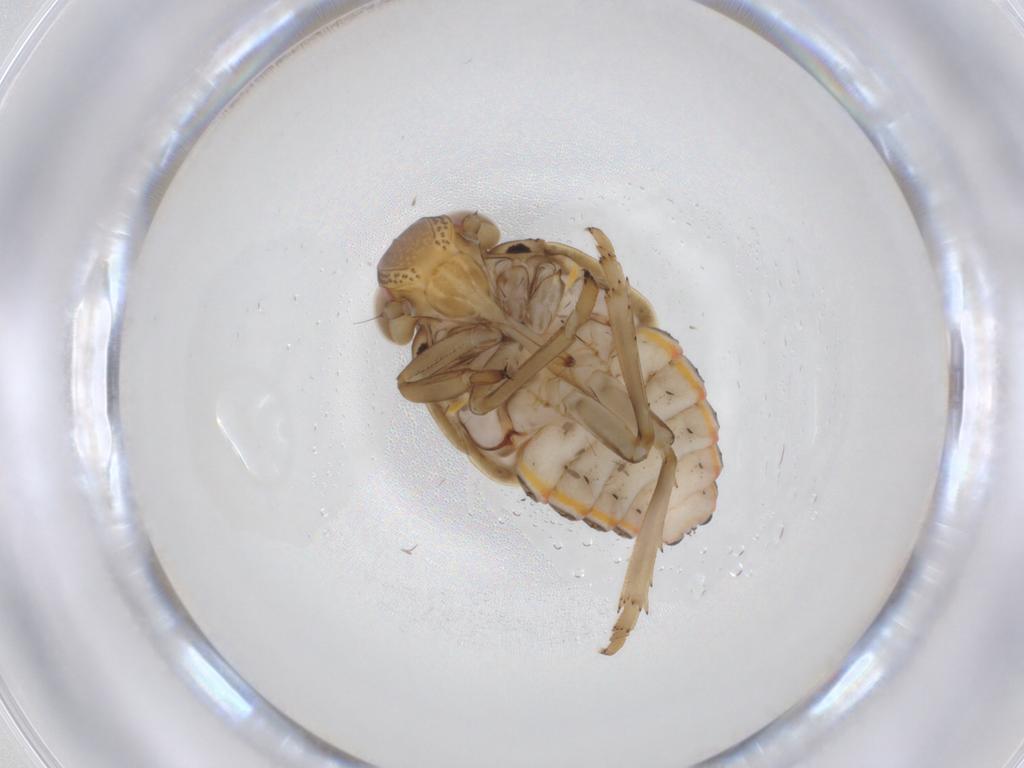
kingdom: Animalia
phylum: Arthropoda
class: Insecta
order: Hemiptera
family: Issidae
